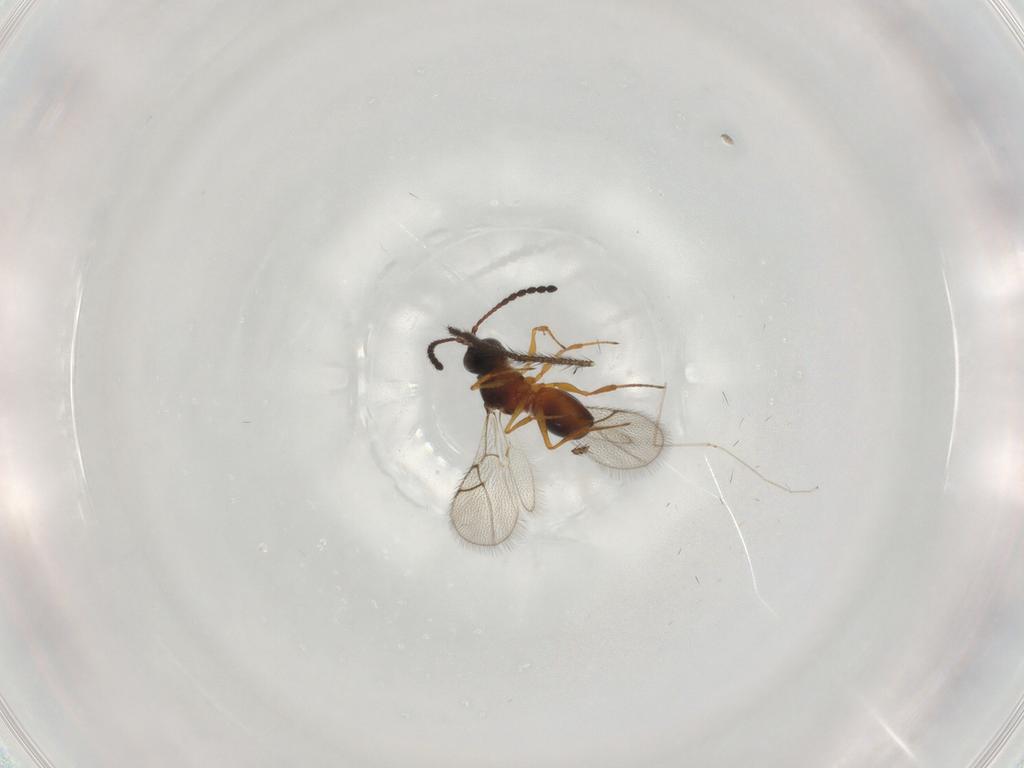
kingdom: Animalia
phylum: Arthropoda
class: Insecta
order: Hymenoptera
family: Figitidae
